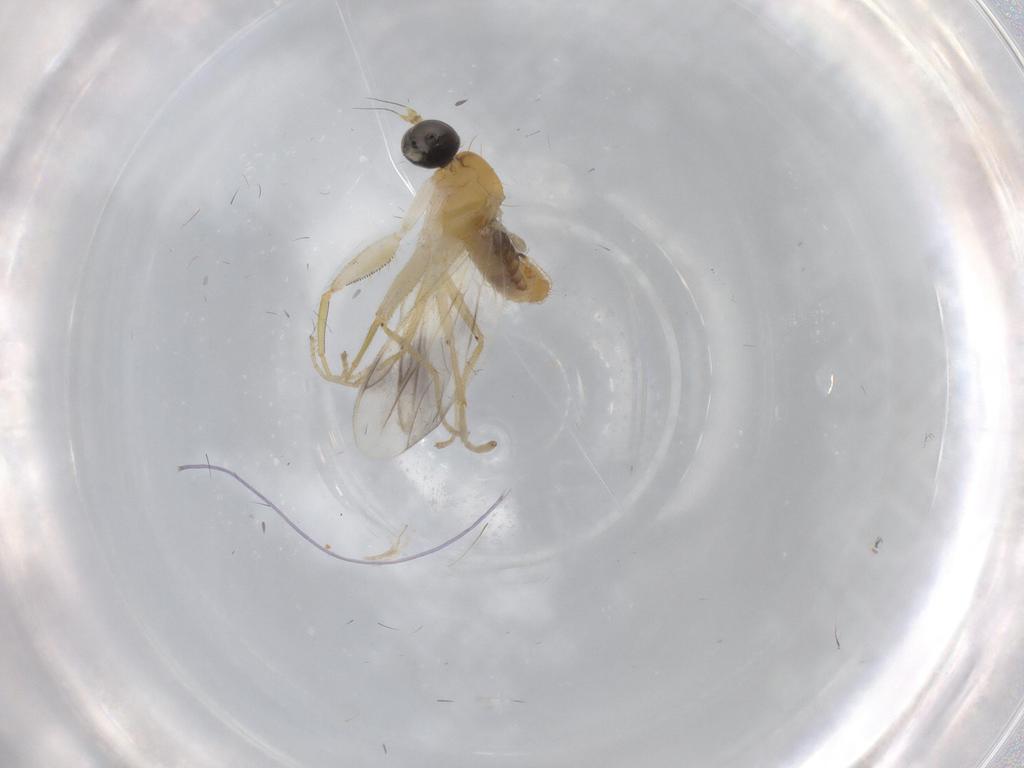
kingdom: Animalia
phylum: Arthropoda
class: Insecta
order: Diptera
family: Chironomidae
